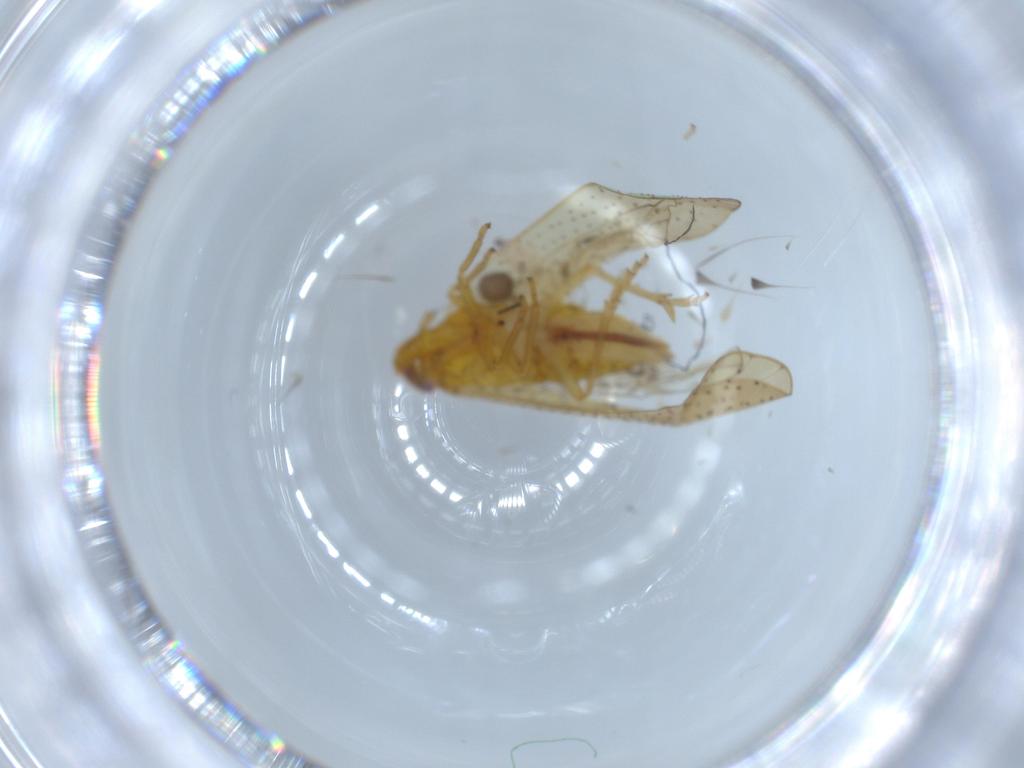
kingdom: Animalia
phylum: Arthropoda
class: Insecta
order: Hemiptera
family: Delphacidae
